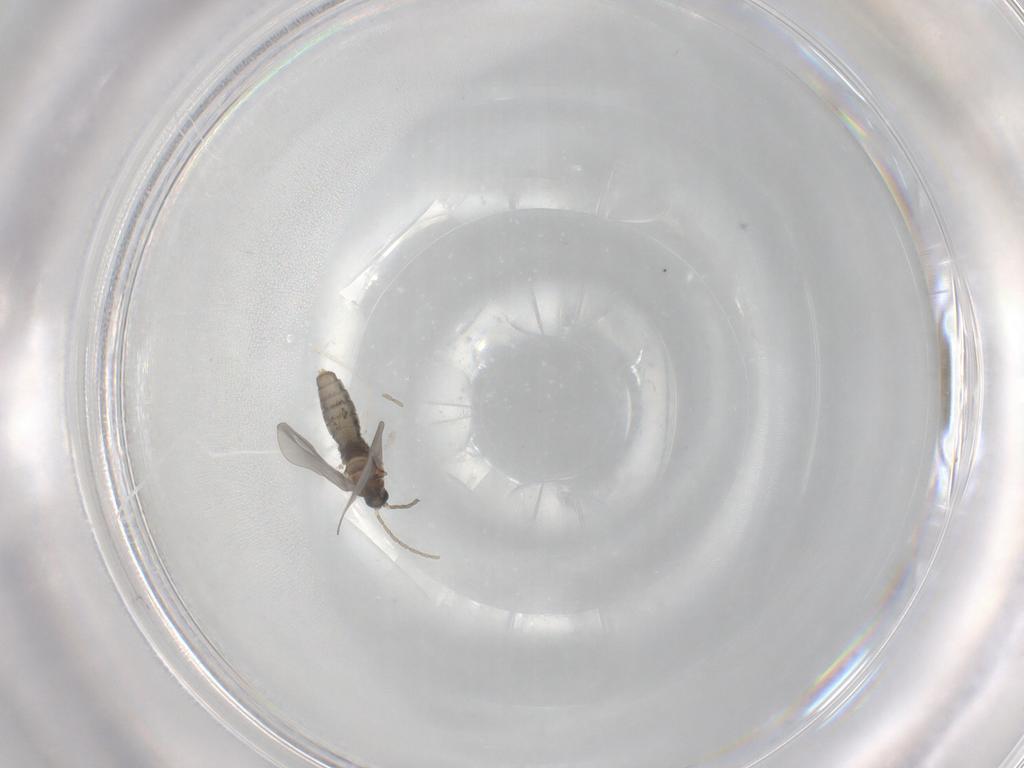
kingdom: Animalia
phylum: Arthropoda
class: Insecta
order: Diptera
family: Cecidomyiidae
